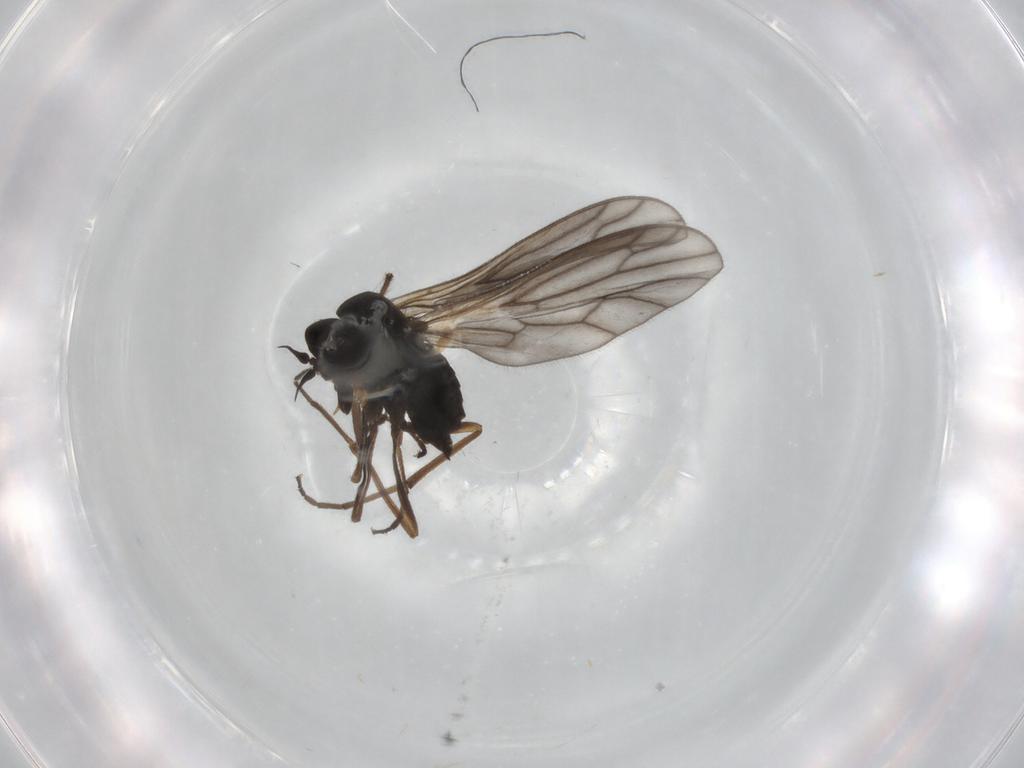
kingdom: Animalia
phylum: Arthropoda
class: Insecta
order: Diptera
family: Empididae
